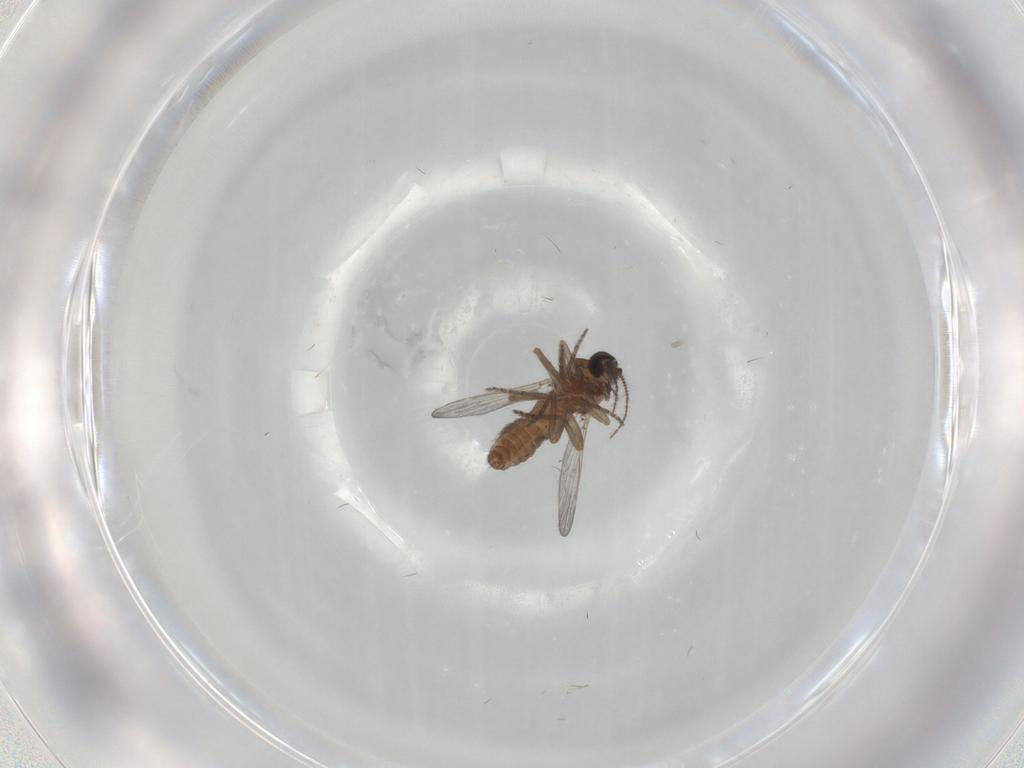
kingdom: Animalia
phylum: Arthropoda
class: Insecta
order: Diptera
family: Ceratopogonidae
